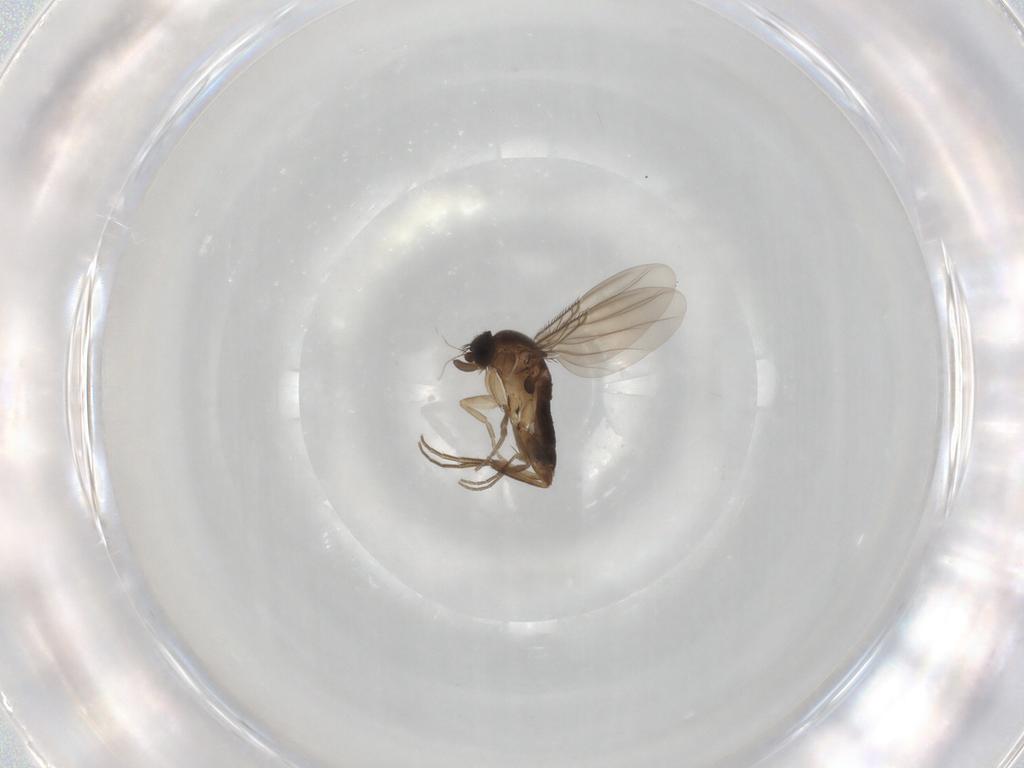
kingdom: Animalia
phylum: Arthropoda
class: Insecta
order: Diptera
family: Phoridae
